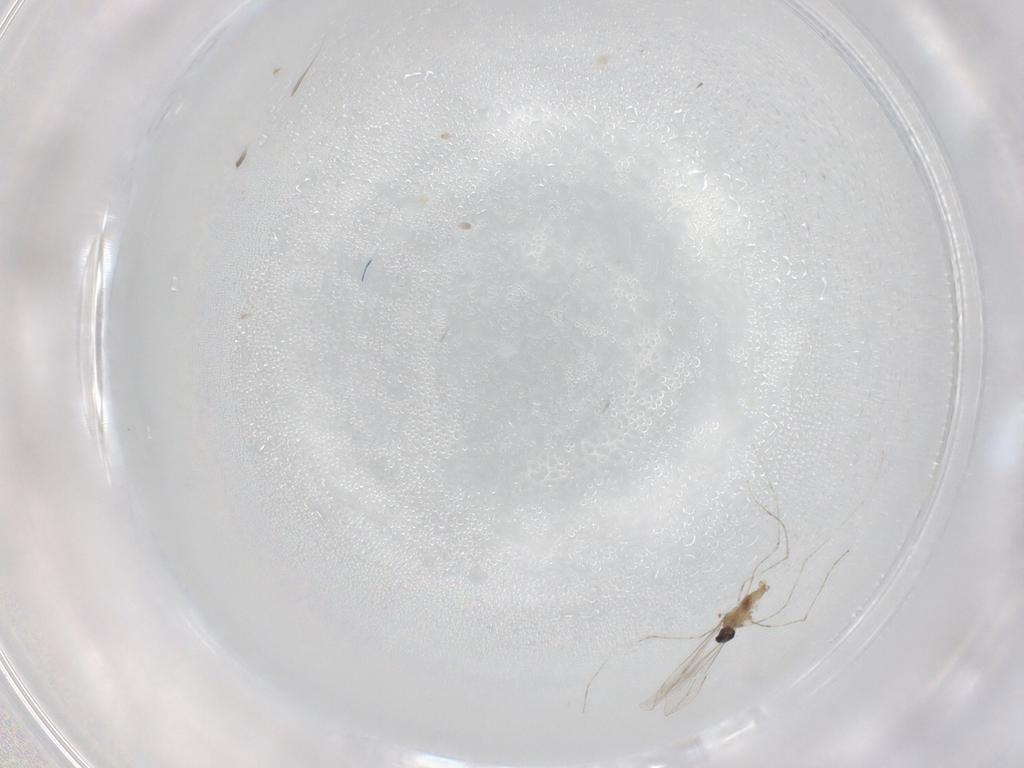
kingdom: Animalia
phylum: Arthropoda
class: Insecta
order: Diptera
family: Cecidomyiidae
